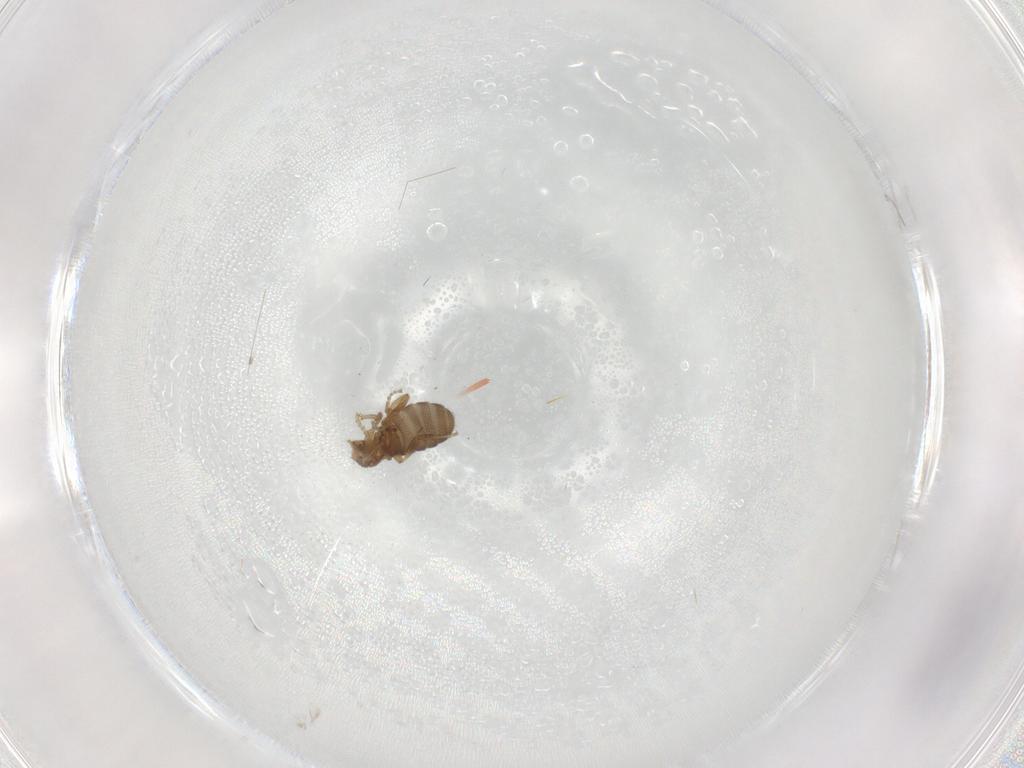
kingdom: Animalia
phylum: Arthropoda
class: Insecta
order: Diptera
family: Phoridae
